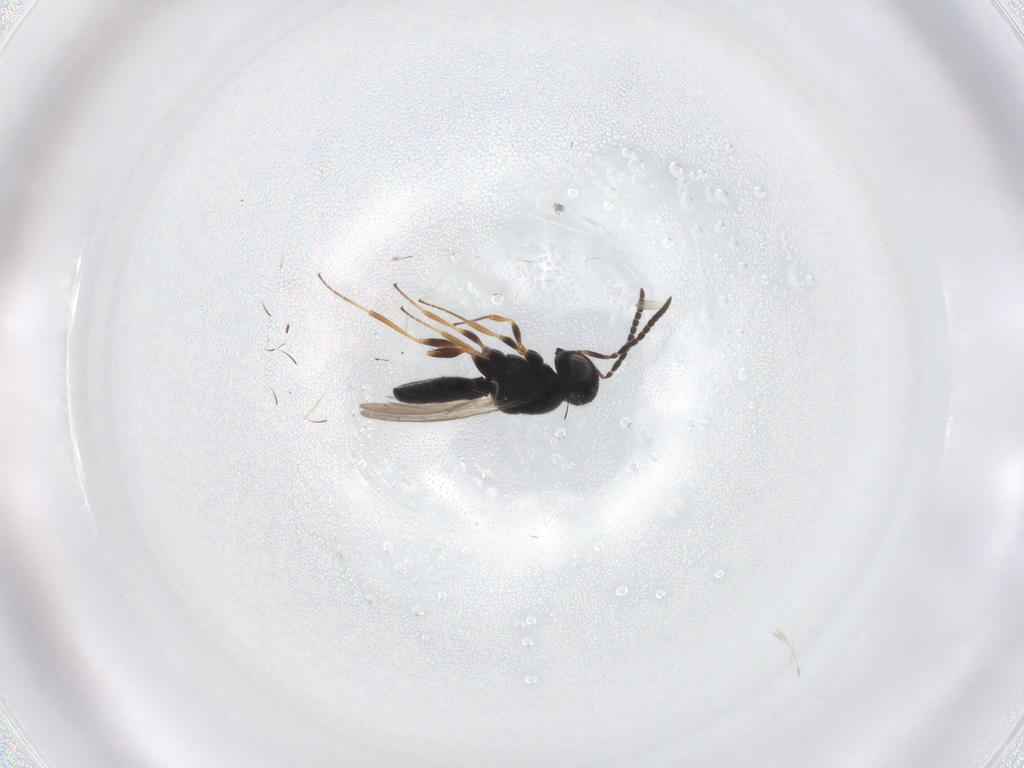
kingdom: Animalia
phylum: Arthropoda
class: Insecta
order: Hymenoptera
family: Scelionidae
